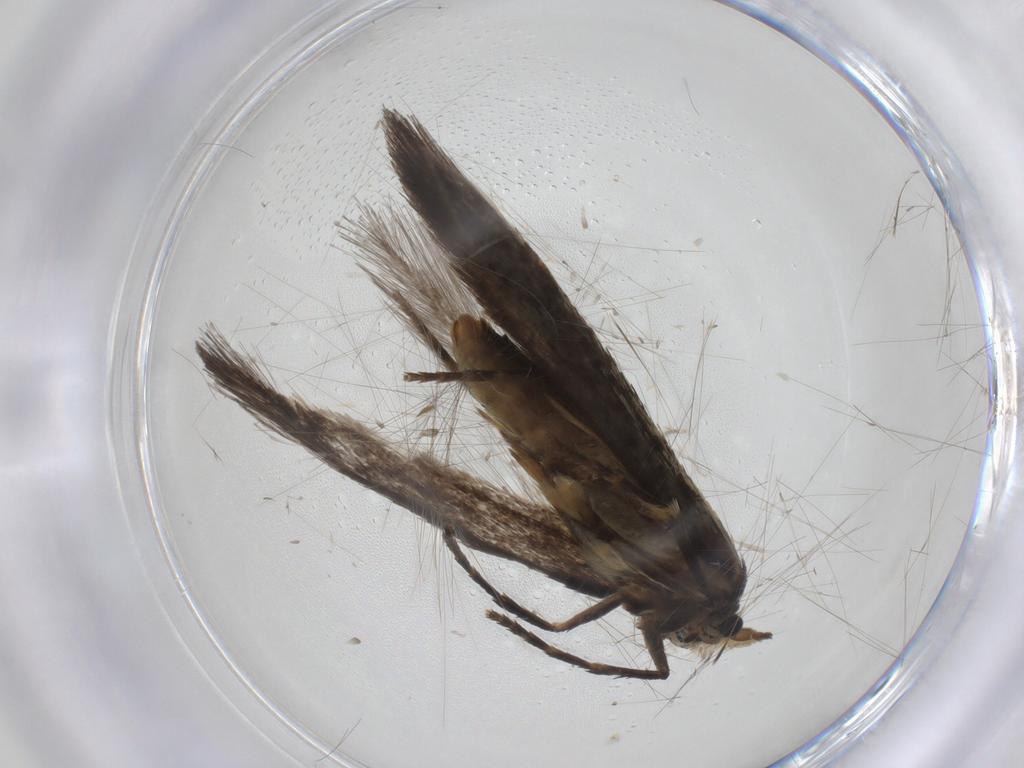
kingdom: Animalia
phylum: Arthropoda
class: Insecta
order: Lepidoptera
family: Nepticulidae
